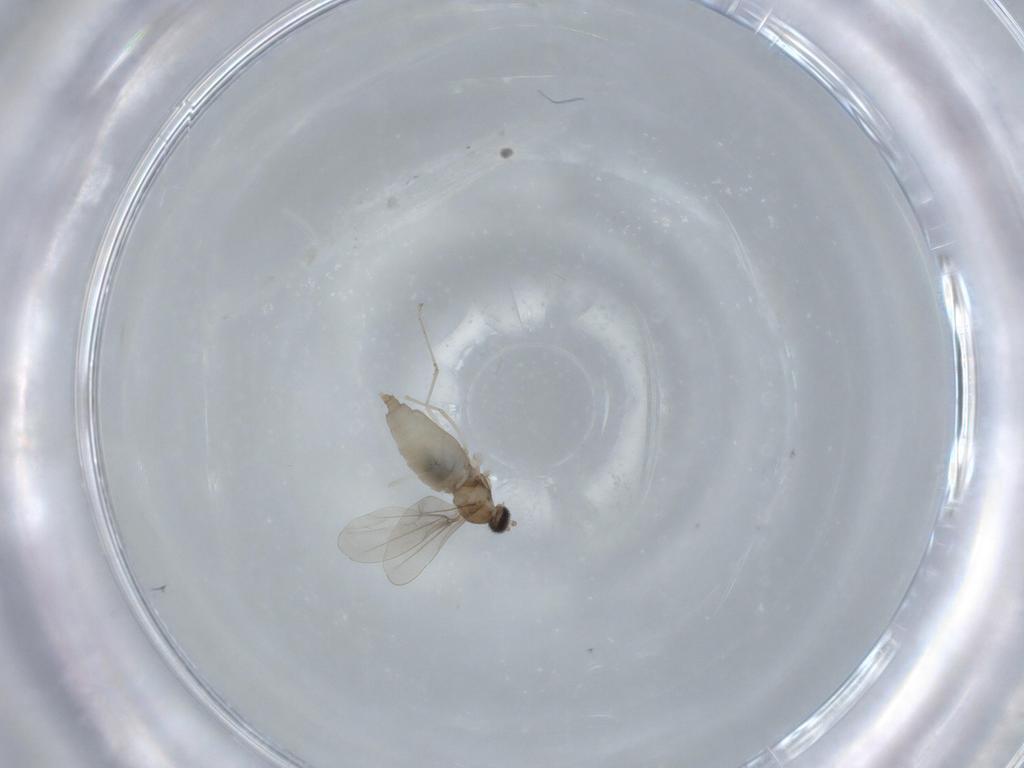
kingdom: Animalia
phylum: Arthropoda
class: Insecta
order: Diptera
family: Cecidomyiidae
